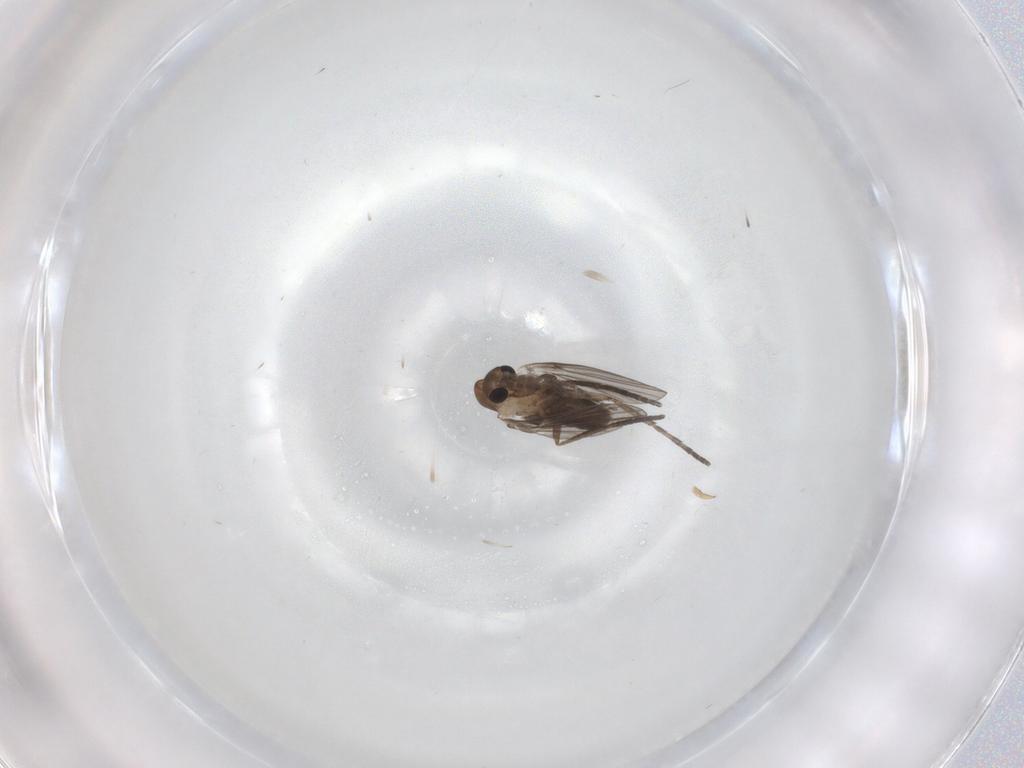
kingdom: Animalia
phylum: Arthropoda
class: Insecta
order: Diptera
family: Psychodidae
